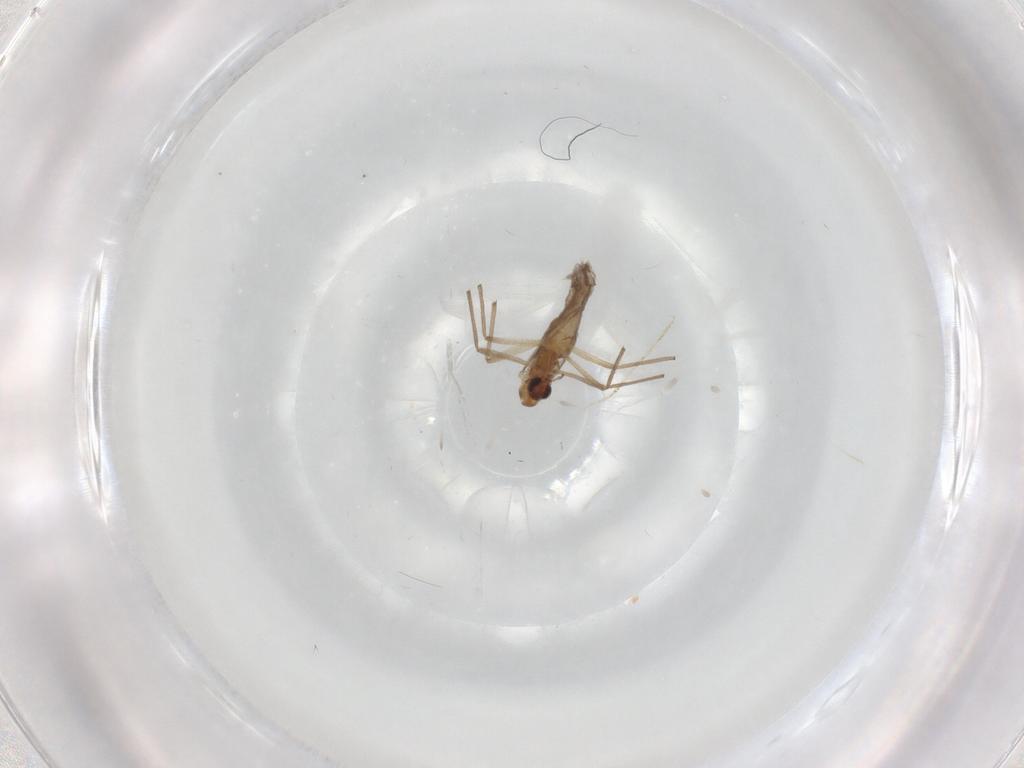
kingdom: Animalia
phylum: Arthropoda
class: Insecta
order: Diptera
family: Chironomidae
